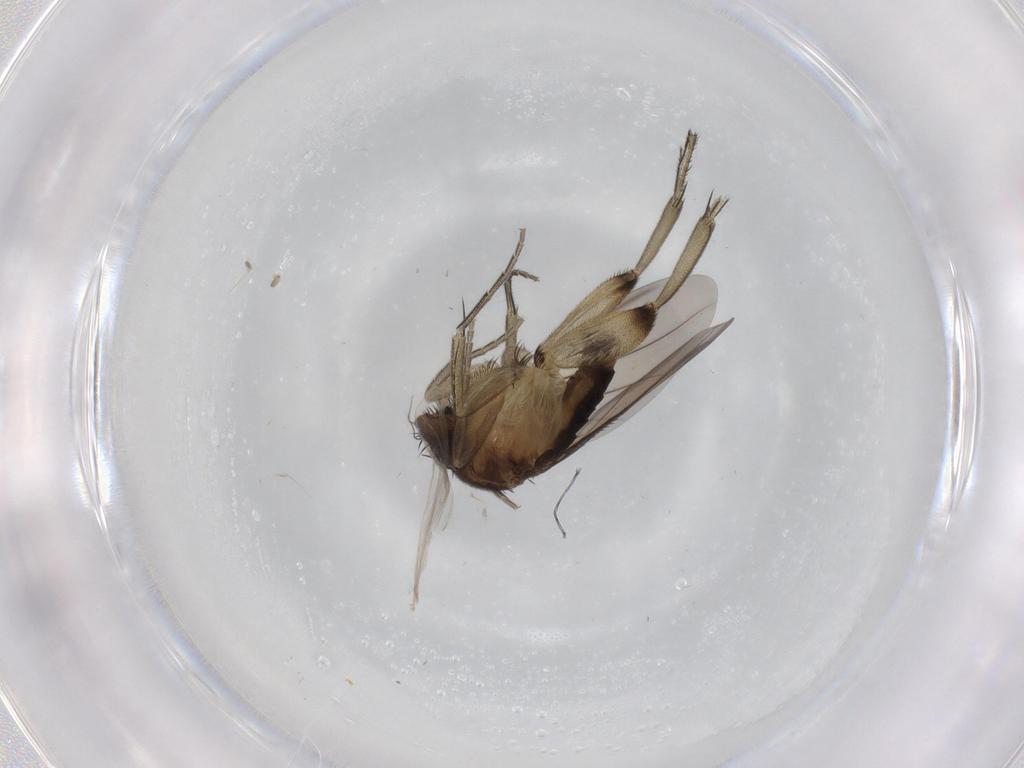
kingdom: Animalia
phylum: Arthropoda
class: Insecta
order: Diptera
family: Phoridae
